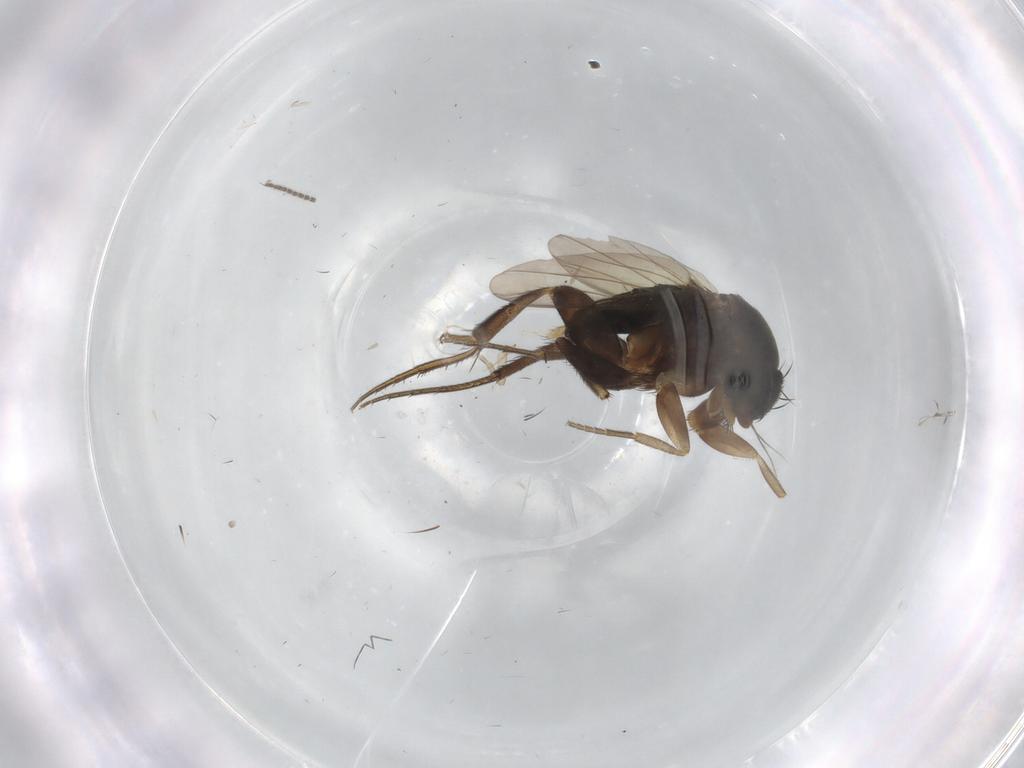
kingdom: Animalia
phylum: Arthropoda
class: Insecta
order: Diptera
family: Phoridae
